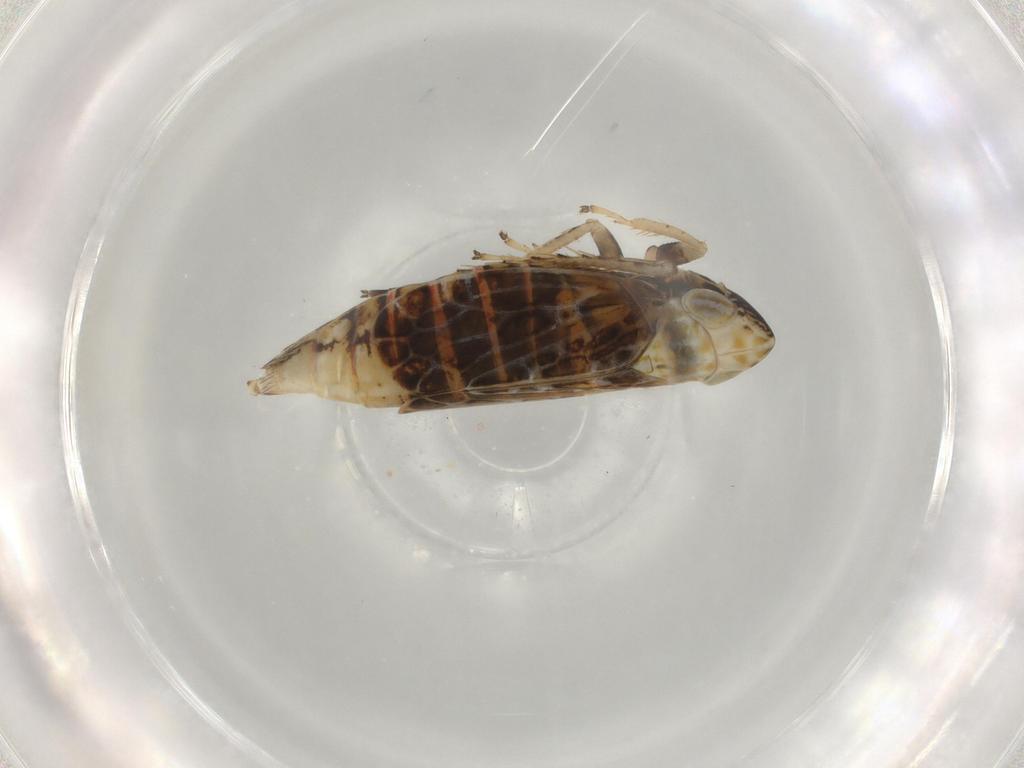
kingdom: Animalia
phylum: Arthropoda
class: Insecta
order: Hemiptera
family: Cicadellidae
